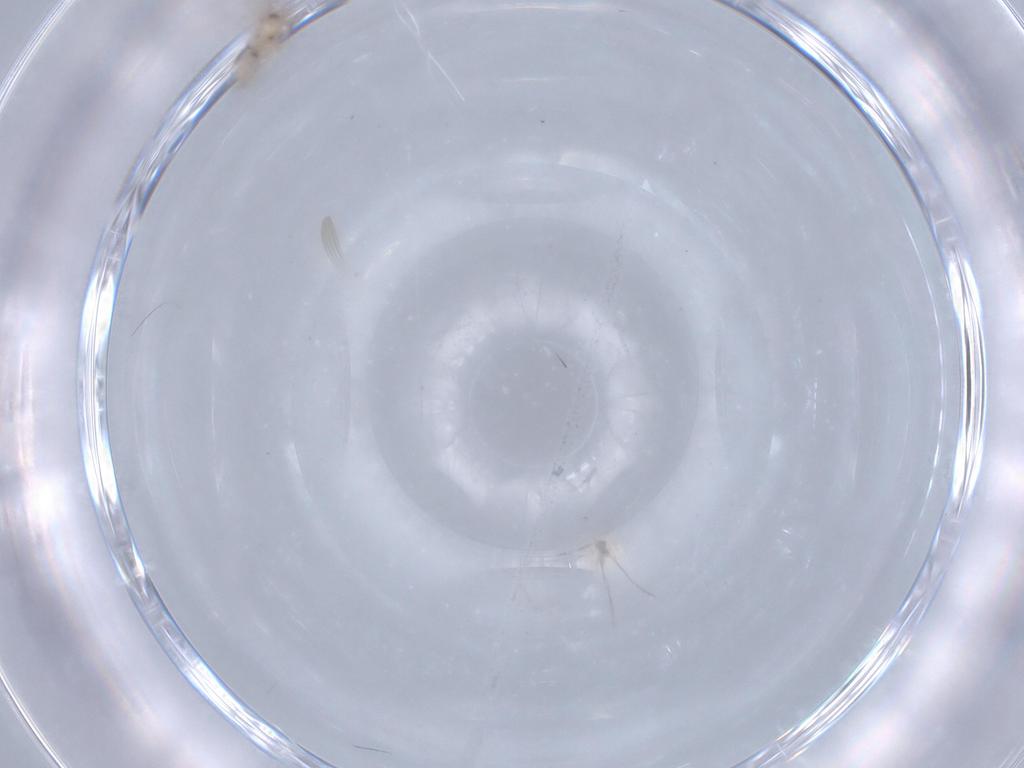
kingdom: Animalia
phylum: Arthropoda
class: Insecta
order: Diptera
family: Cecidomyiidae
